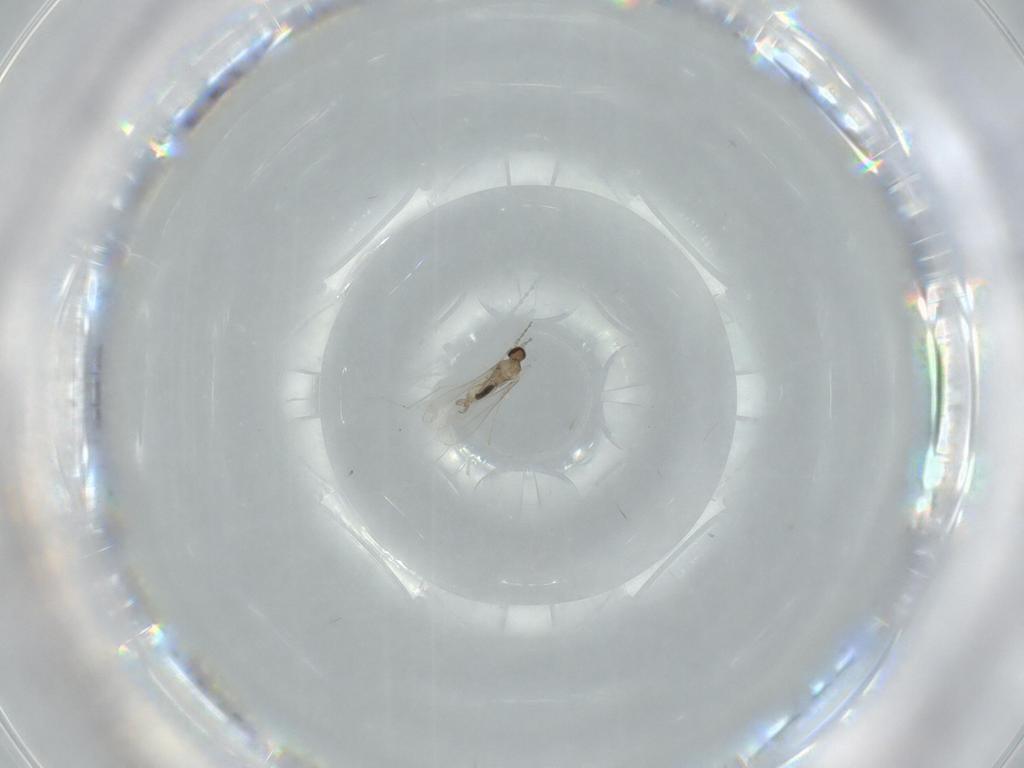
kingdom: Animalia
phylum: Arthropoda
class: Insecta
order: Diptera
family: Cecidomyiidae
